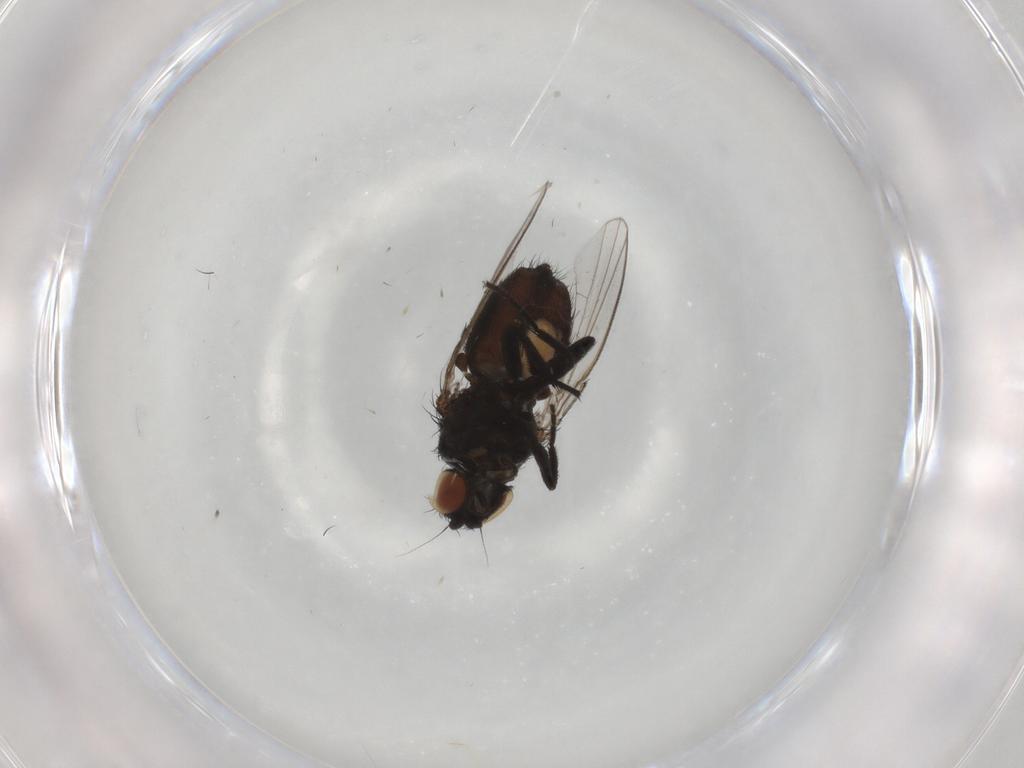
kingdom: Animalia
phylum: Arthropoda
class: Insecta
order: Diptera
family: Milichiidae
